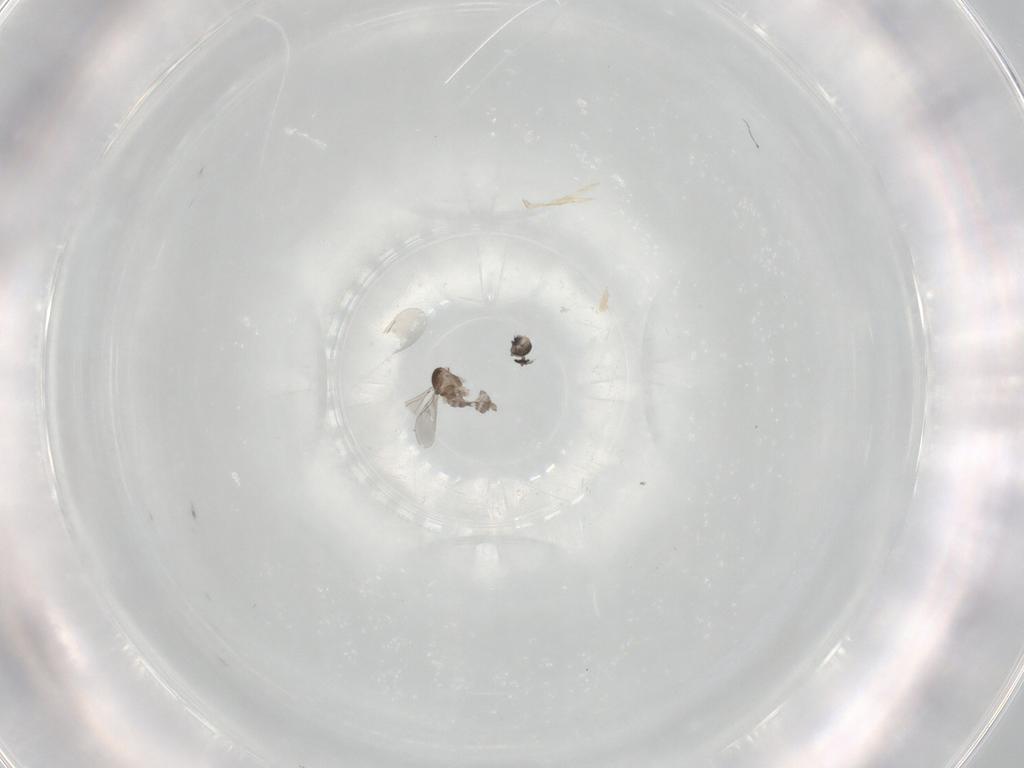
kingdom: Animalia
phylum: Arthropoda
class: Insecta
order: Diptera
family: Cecidomyiidae
